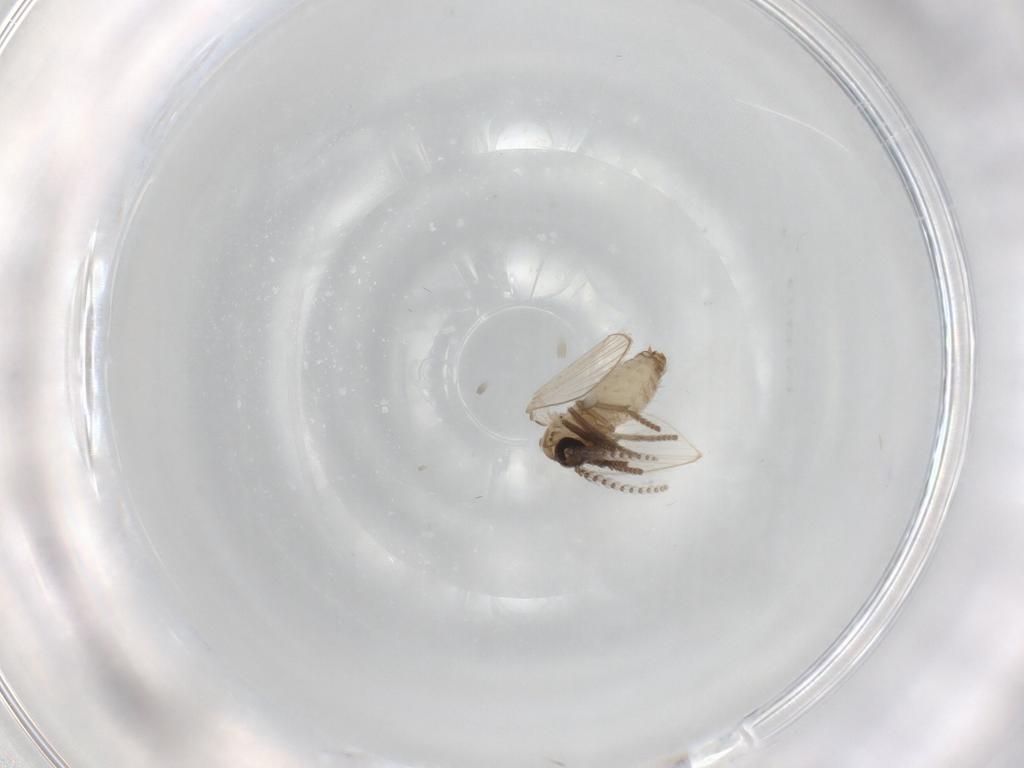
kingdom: Animalia
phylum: Arthropoda
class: Insecta
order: Diptera
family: Psychodidae
